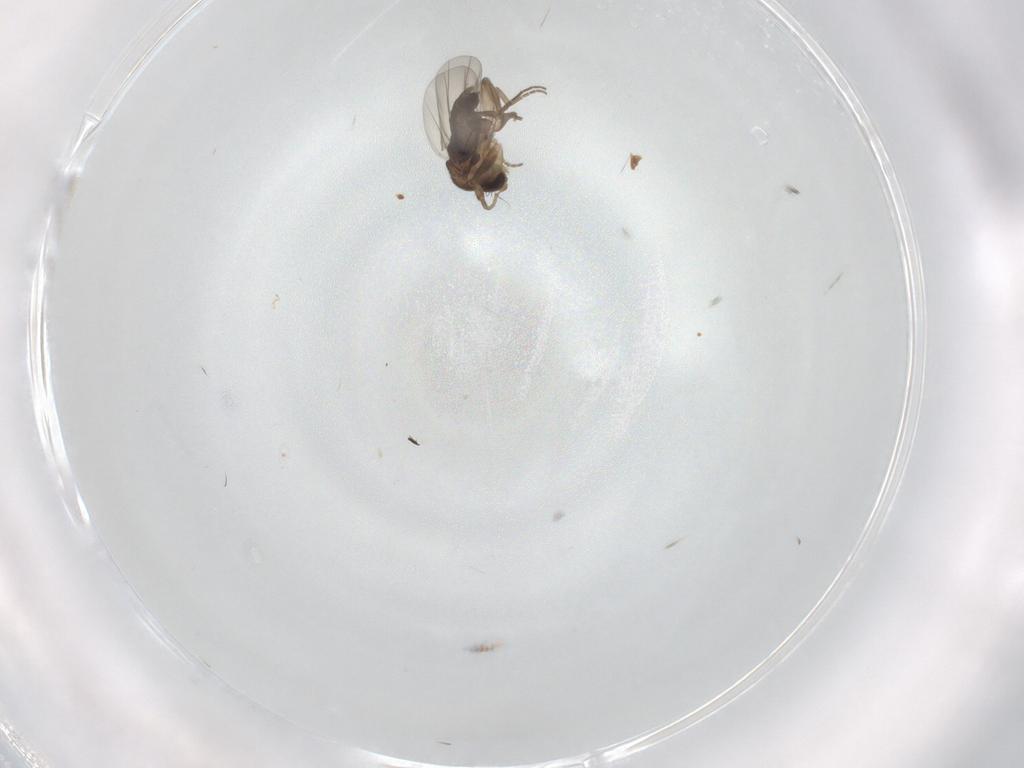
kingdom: Animalia
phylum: Arthropoda
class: Insecta
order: Diptera
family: Phoridae
